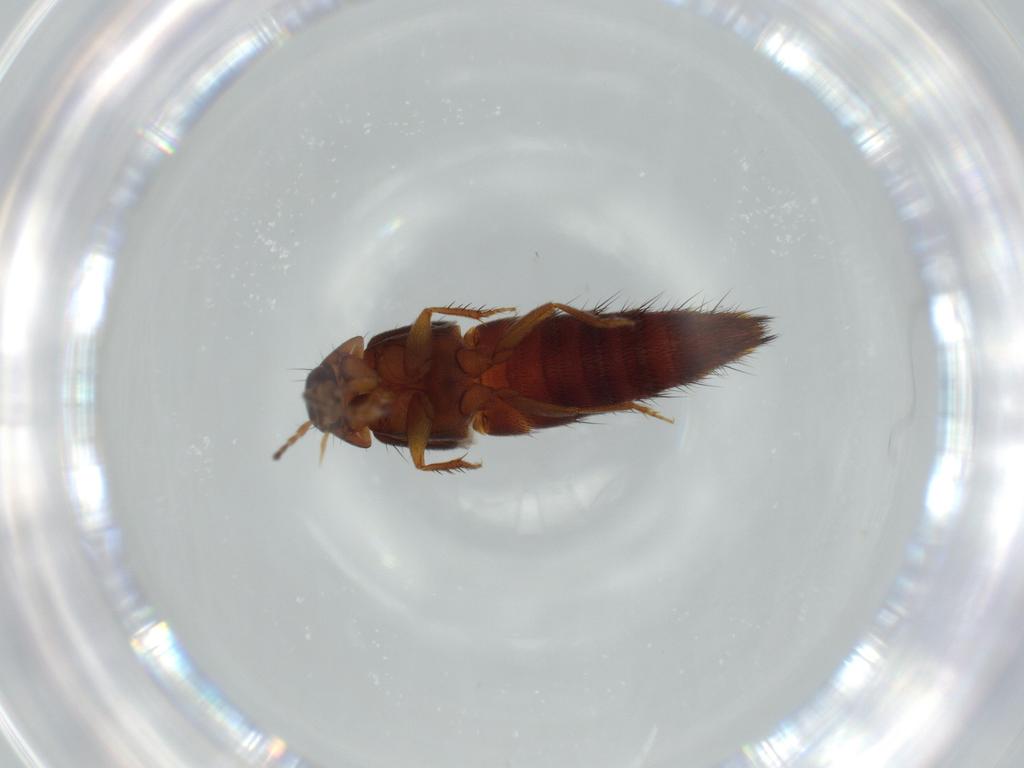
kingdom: Animalia
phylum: Arthropoda
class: Insecta
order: Coleoptera
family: Staphylinidae
